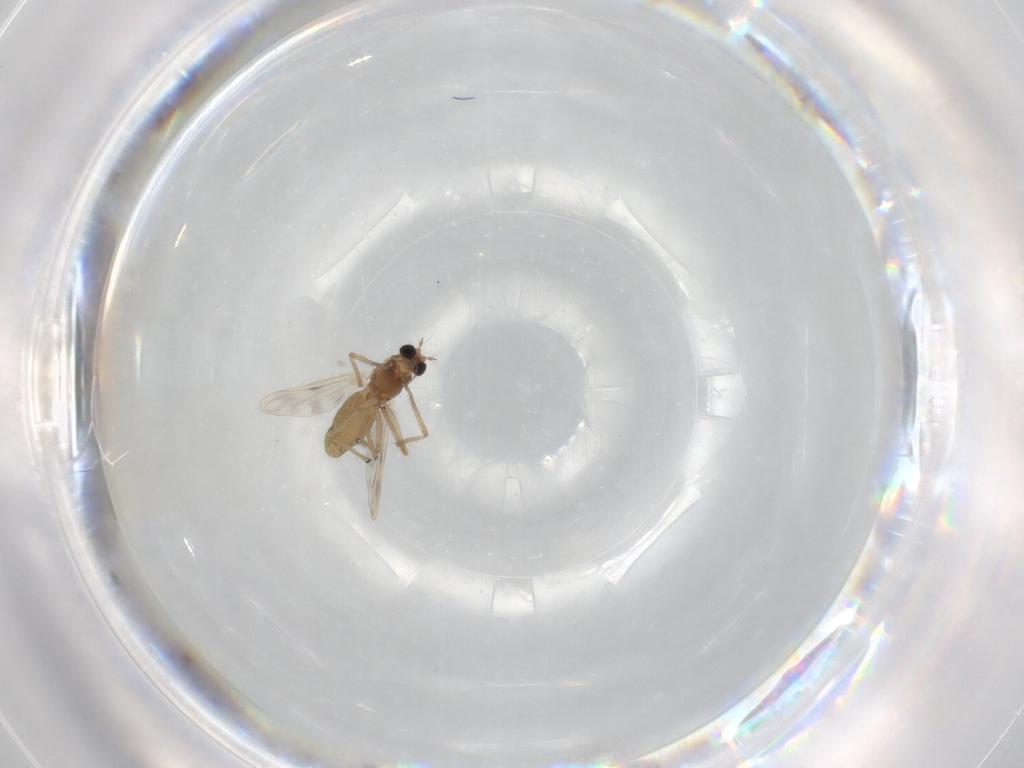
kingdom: Animalia
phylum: Arthropoda
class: Insecta
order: Diptera
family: Chironomidae
